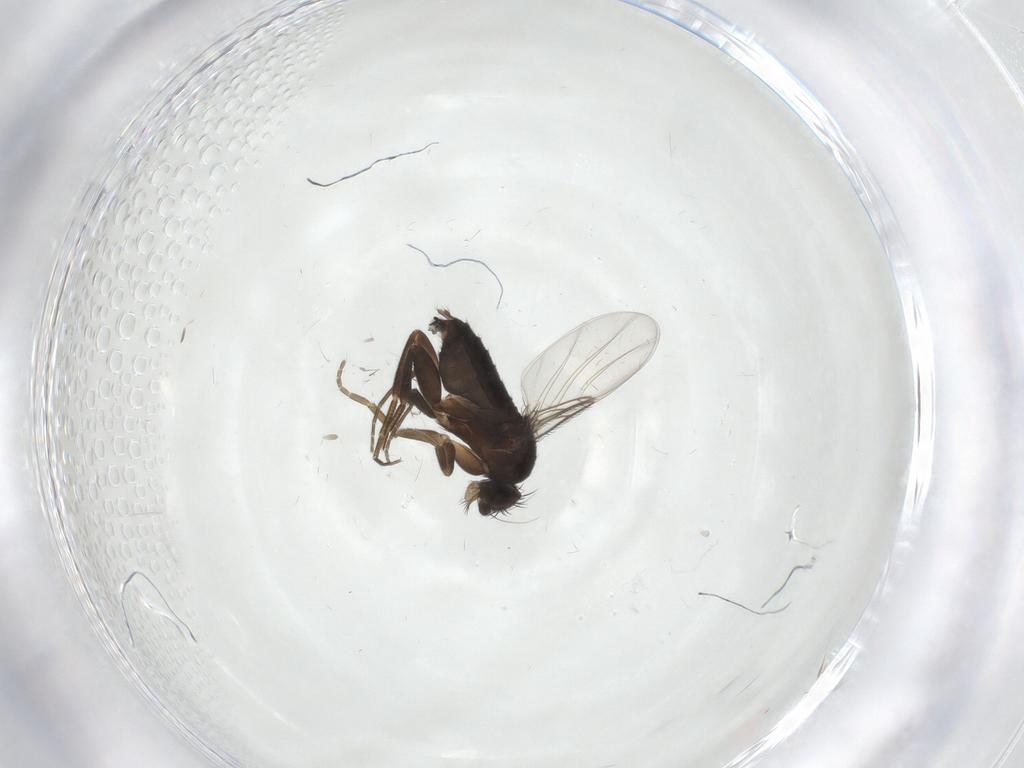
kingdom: Animalia
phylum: Arthropoda
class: Insecta
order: Diptera
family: Phoridae
